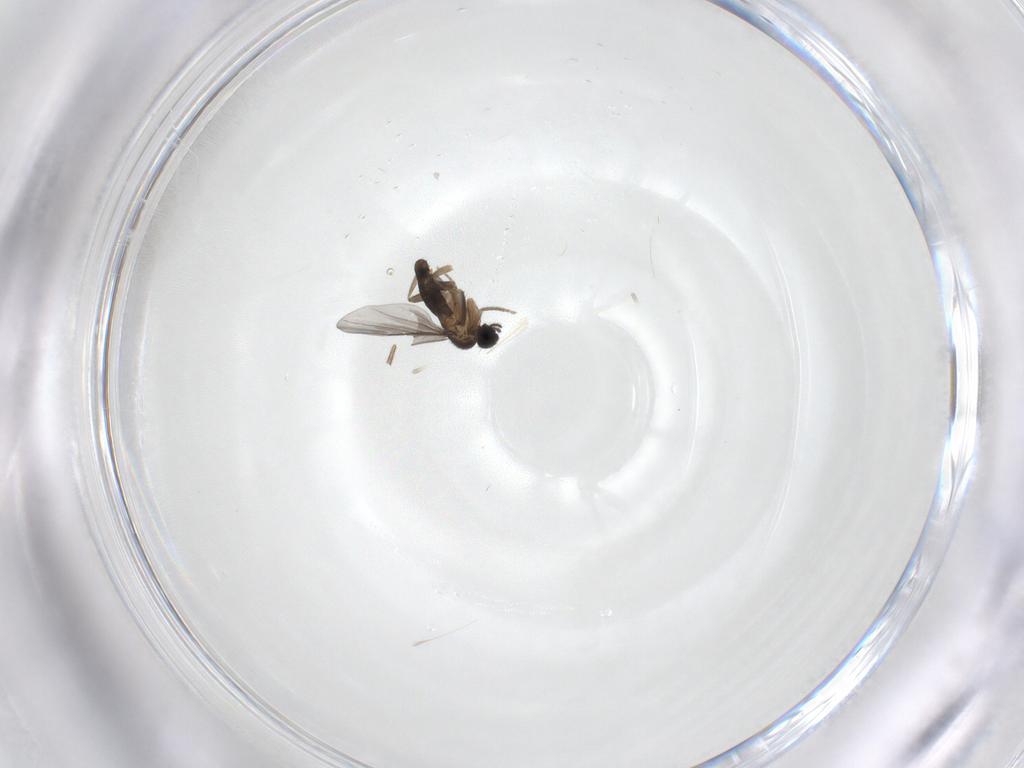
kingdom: Animalia
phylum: Arthropoda
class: Insecta
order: Diptera
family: Cecidomyiidae
